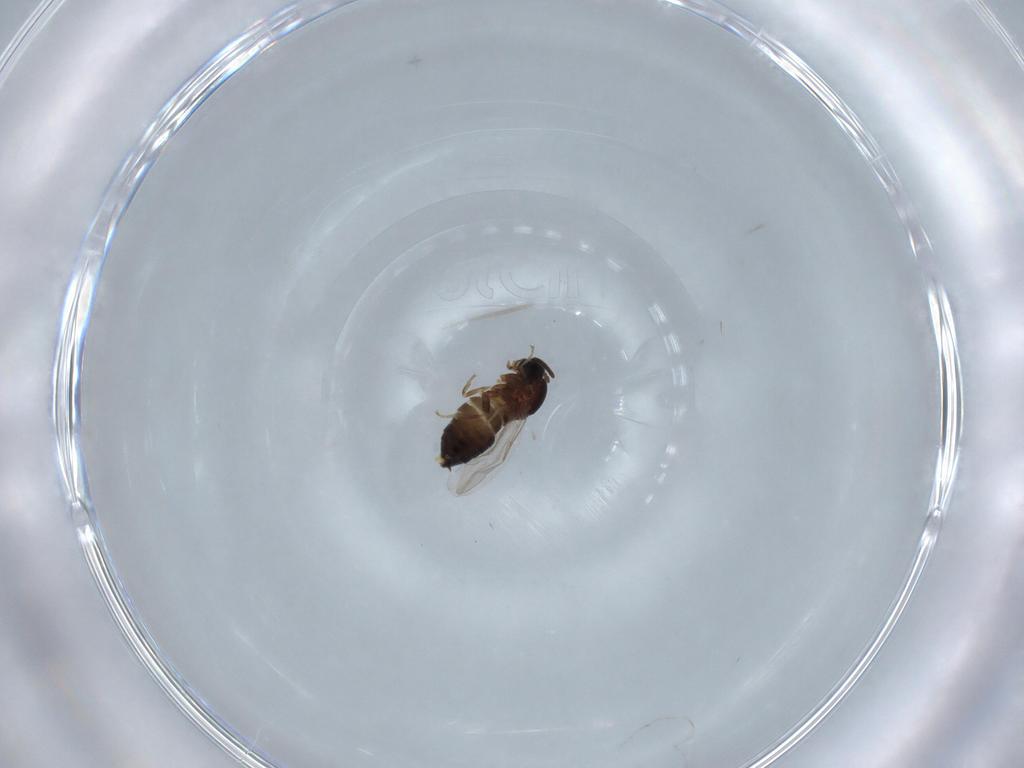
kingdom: Animalia
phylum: Arthropoda
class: Insecta
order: Diptera
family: Scatopsidae
